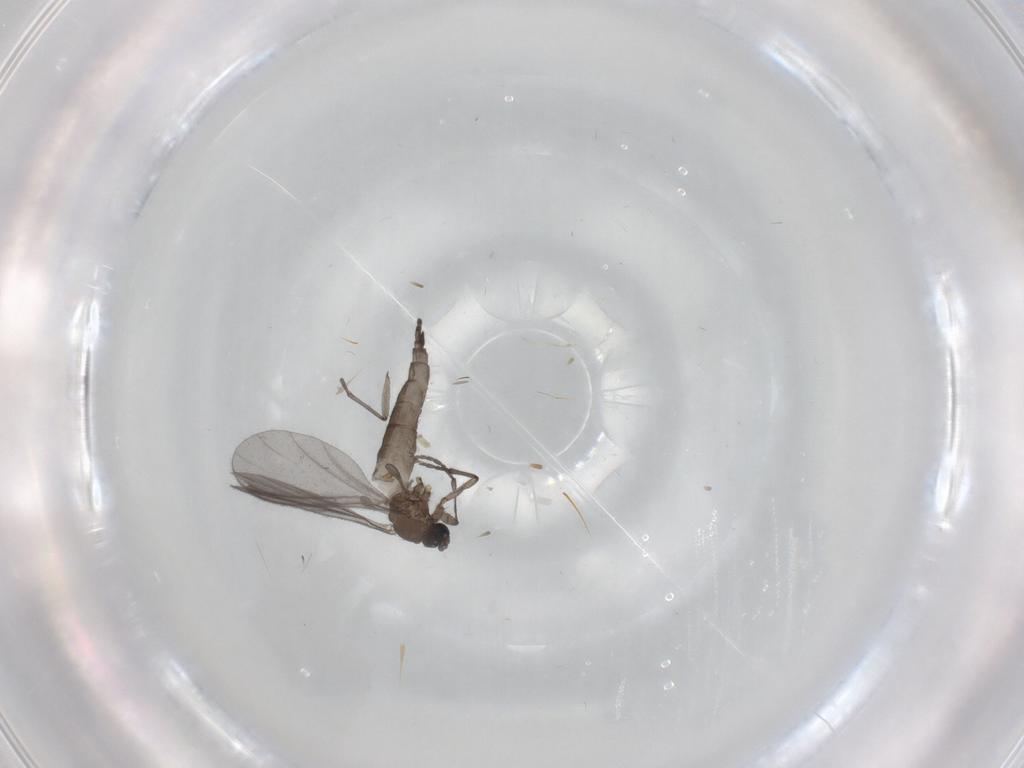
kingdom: Animalia
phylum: Arthropoda
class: Insecta
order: Diptera
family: Sciaridae
